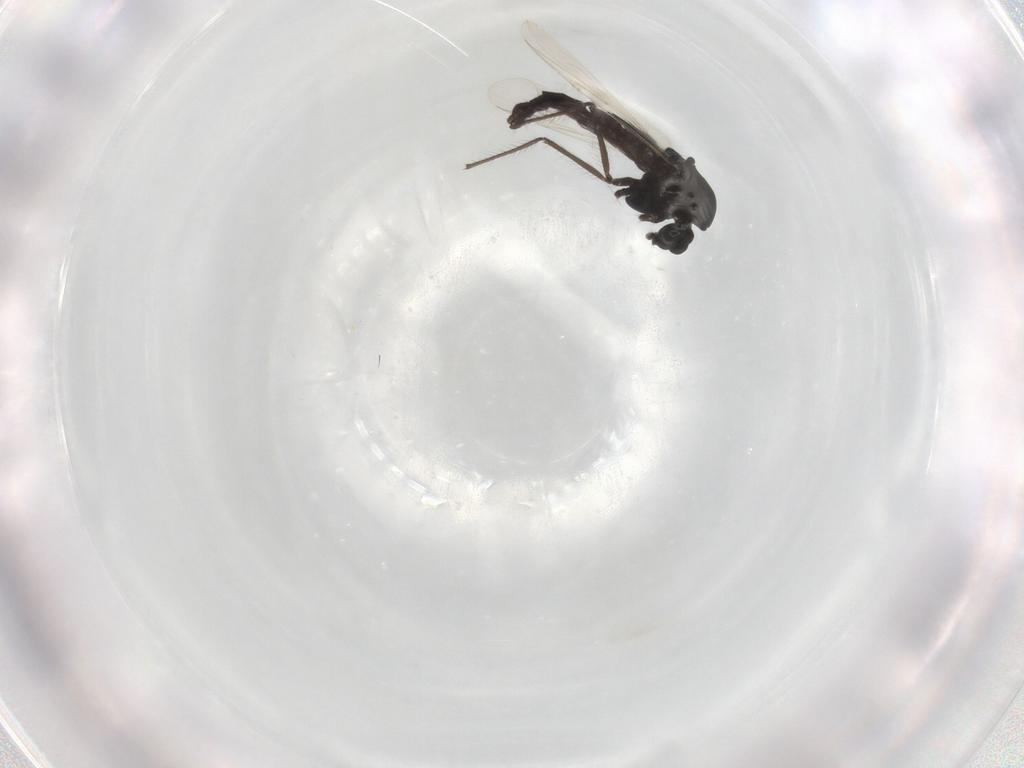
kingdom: Animalia
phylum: Arthropoda
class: Insecta
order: Diptera
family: Chironomidae
